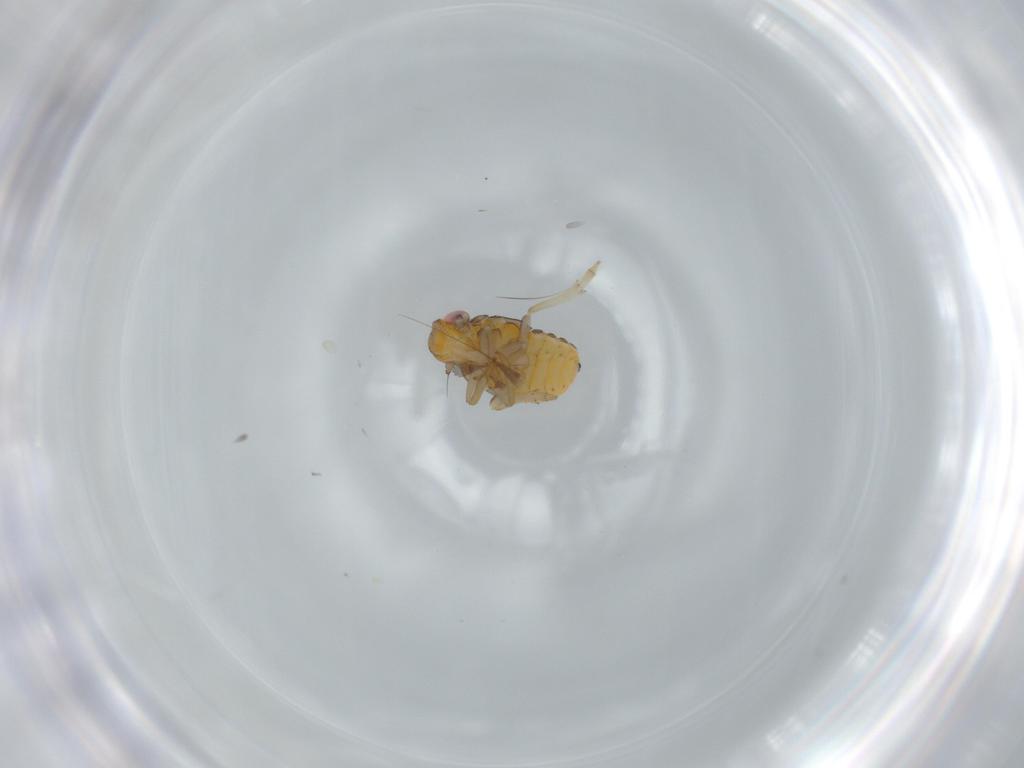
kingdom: Animalia
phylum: Arthropoda
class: Insecta
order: Hemiptera
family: Issidae
